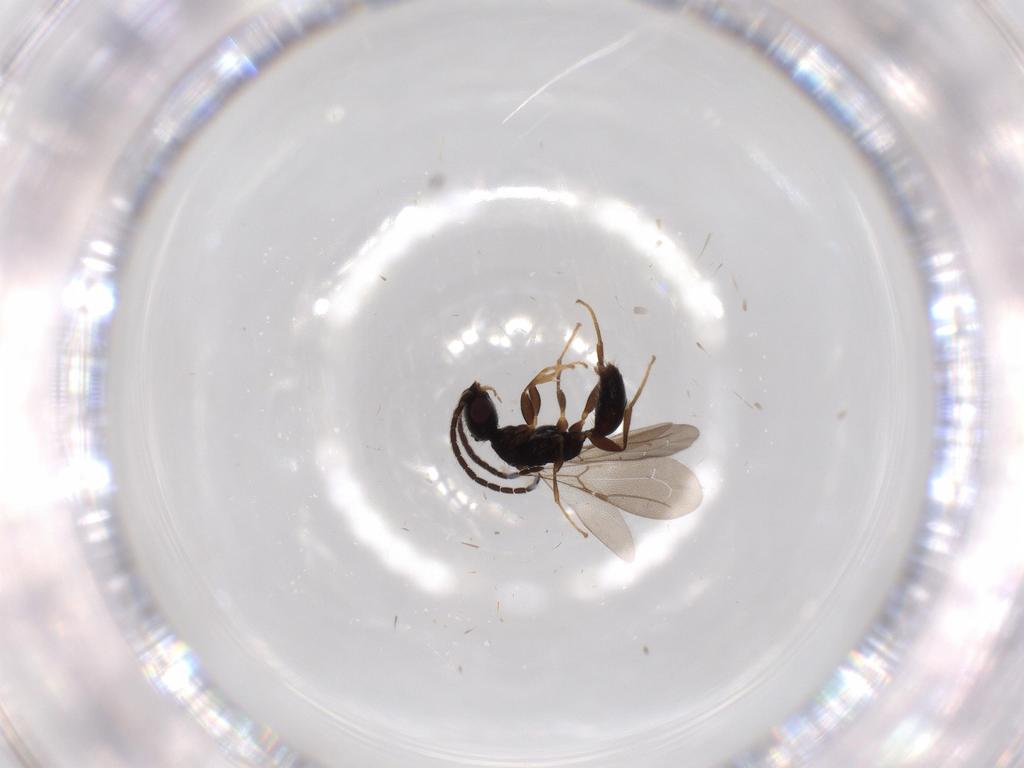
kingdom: Animalia
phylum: Arthropoda
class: Insecta
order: Hymenoptera
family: Bethylidae
